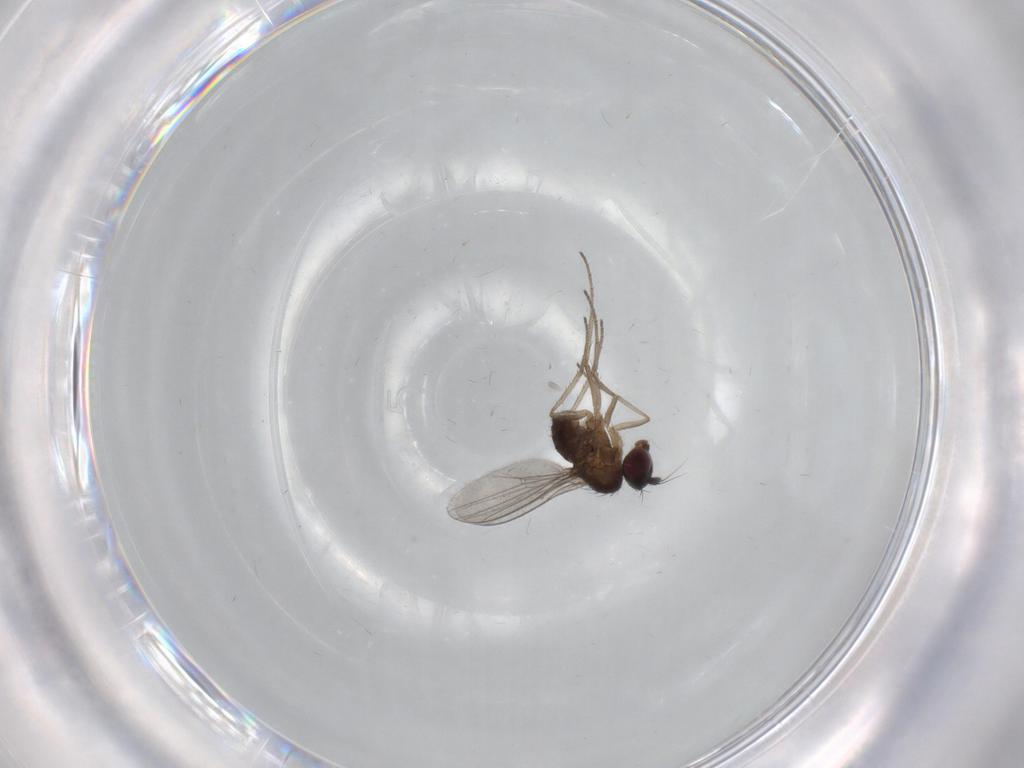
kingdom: Animalia
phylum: Arthropoda
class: Insecta
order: Diptera
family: Dolichopodidae
